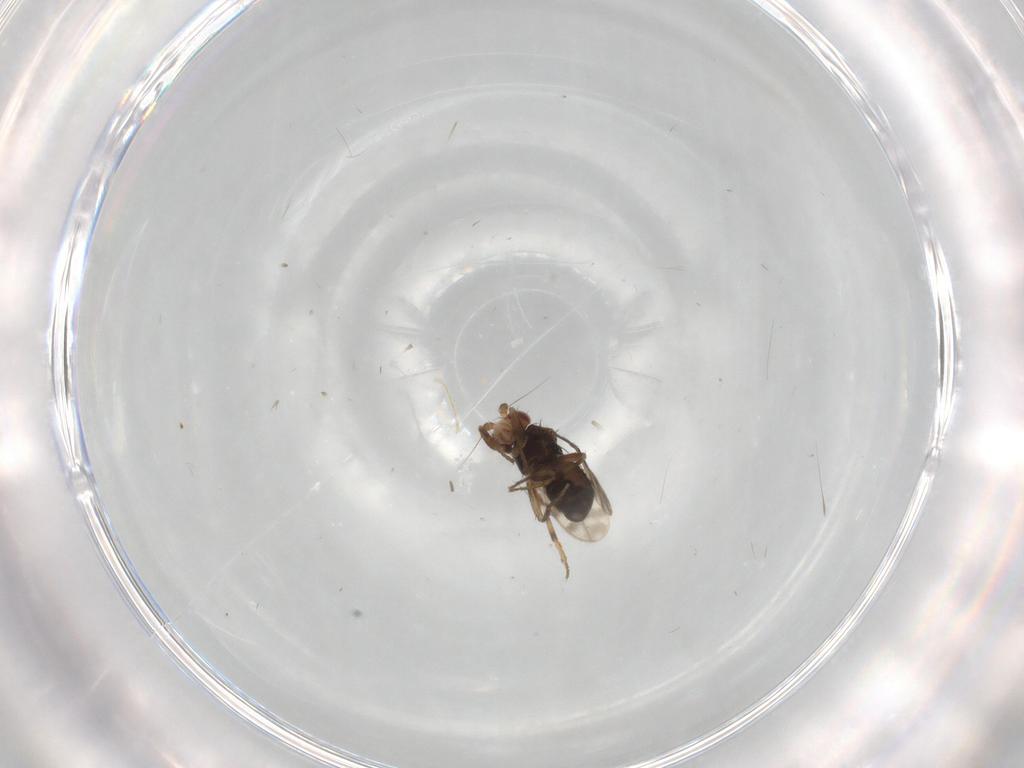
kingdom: Animalia
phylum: Arthropoda
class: Insecta
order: Diptera
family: Sphaeroceridae
